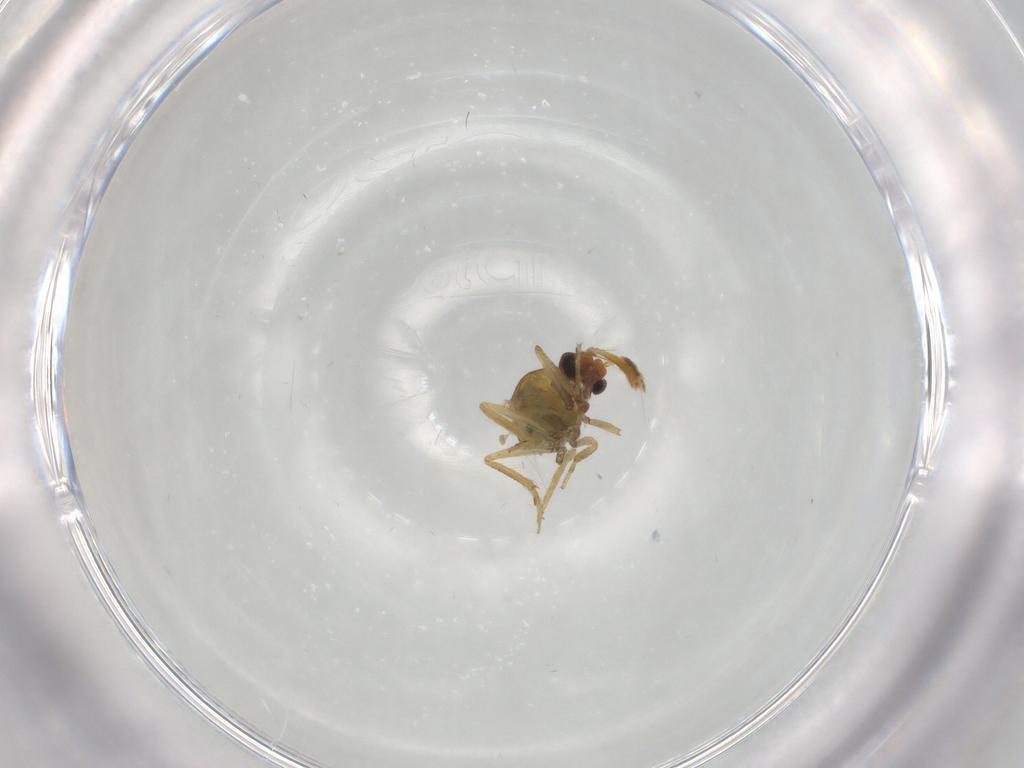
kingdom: Animalia
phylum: Arthropoda
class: Insecta
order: Diptera
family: Ceratopogonidae
